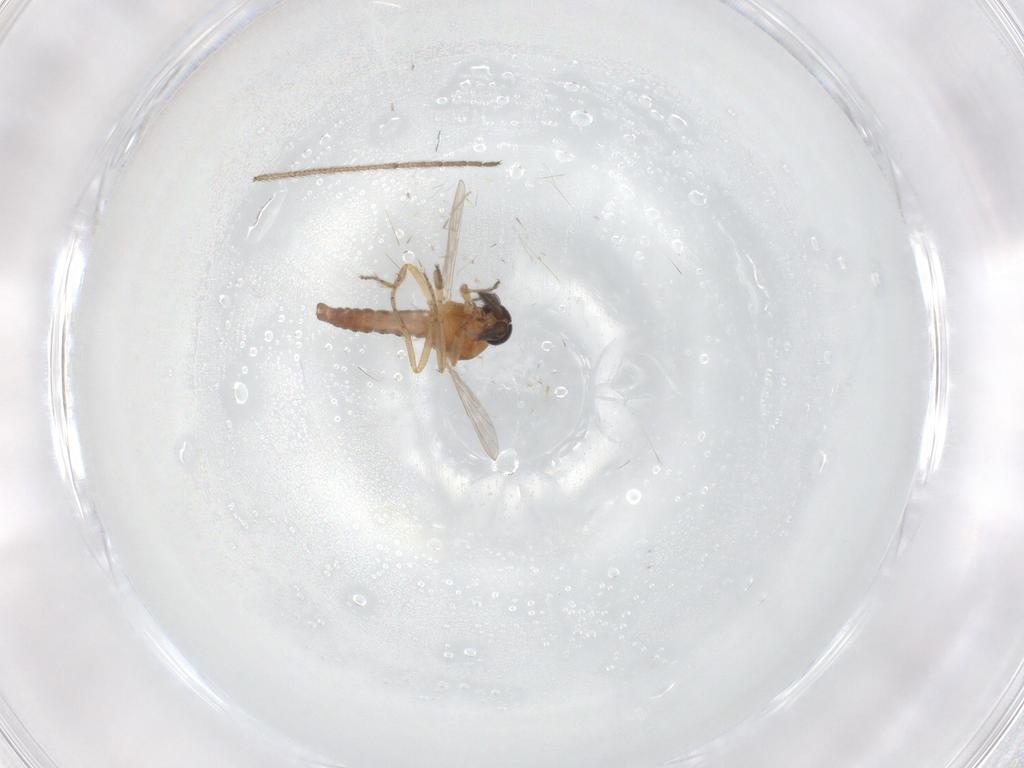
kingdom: Animalia
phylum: Arthropoda
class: Insecta
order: Diptera
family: Ceratopogonidae
